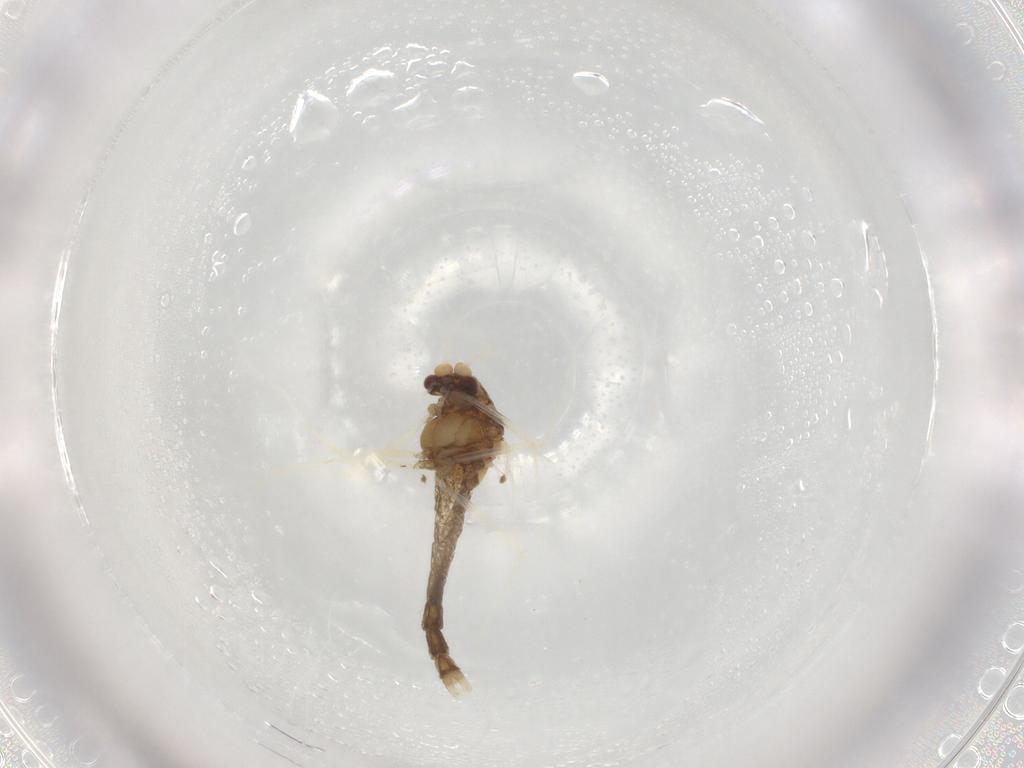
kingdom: Animalia
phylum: Arthropoda
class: Insecta
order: Diptera
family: Chironomidae
